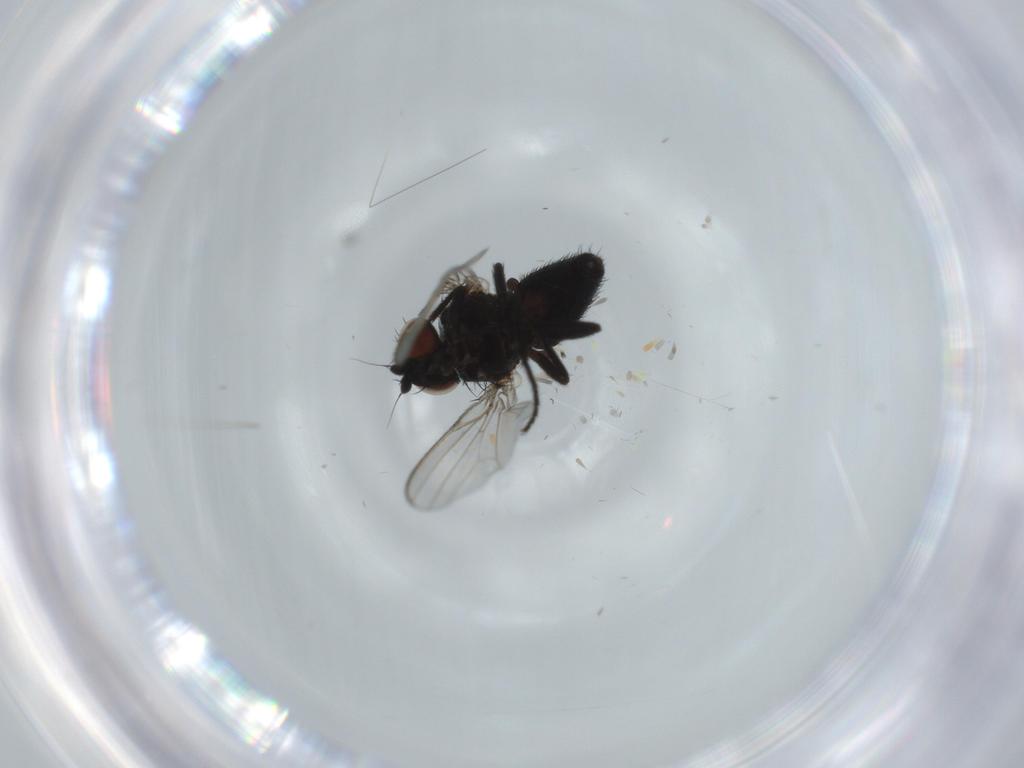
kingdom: Animalia
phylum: Arthropoda
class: Insecta
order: Diptera
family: Milichiidae
